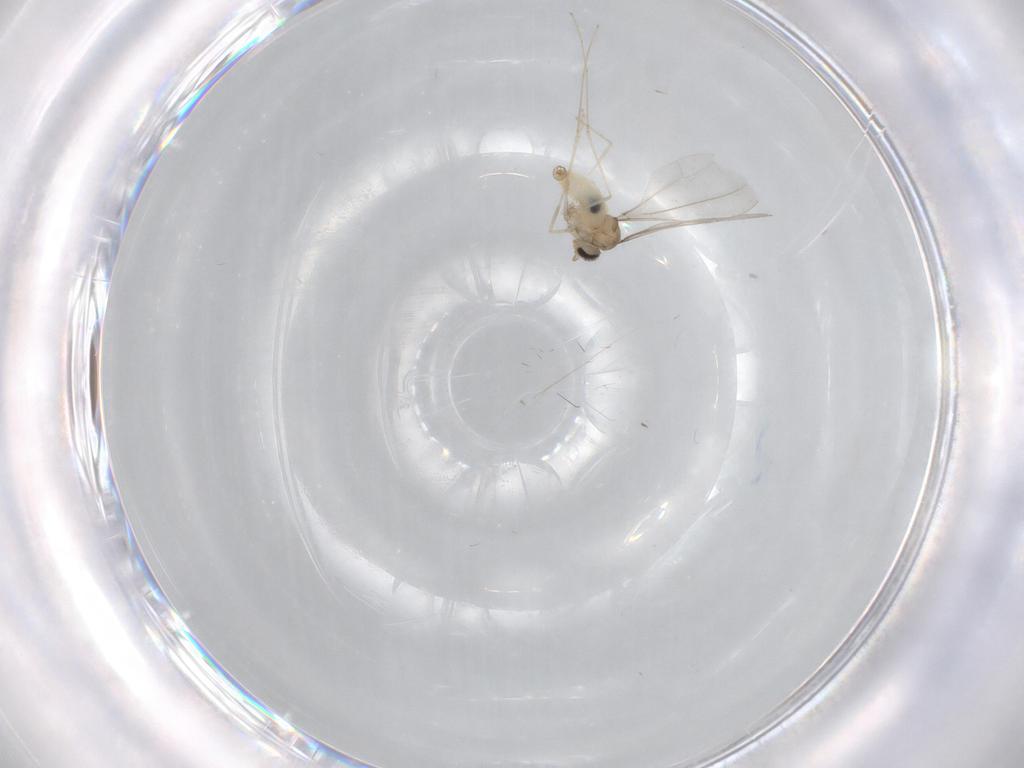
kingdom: Animalia
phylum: Arthropoda
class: Insecta
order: Diptera
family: Cecidomyiidae
